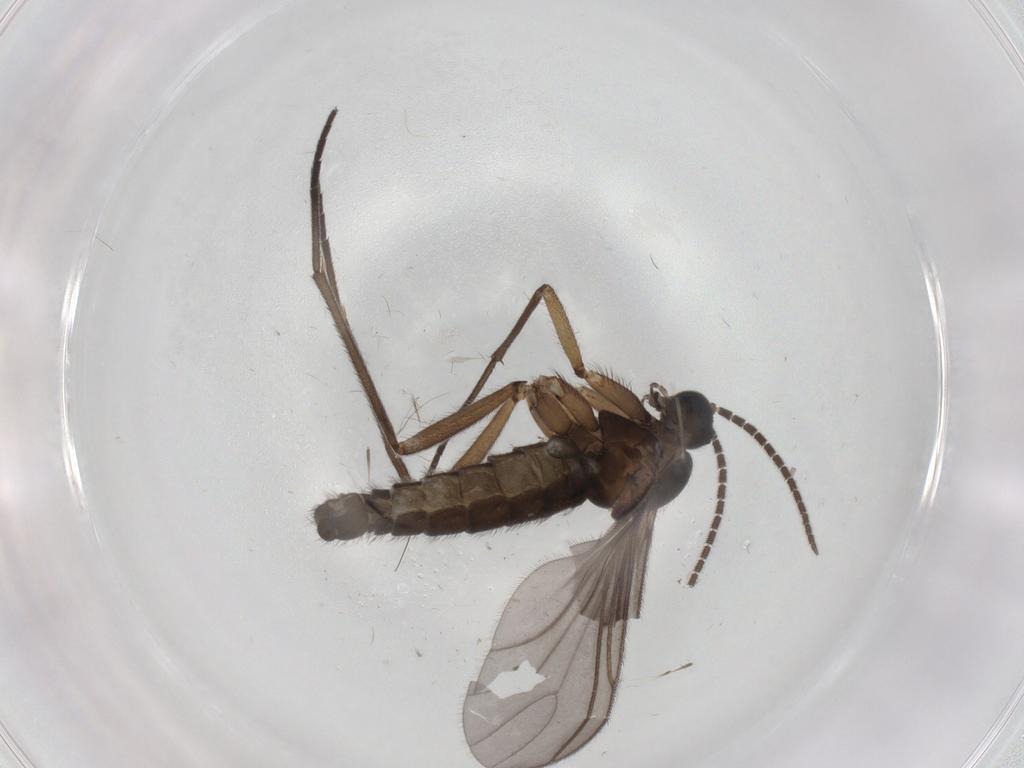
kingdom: Animalia
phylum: Arthropoda
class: Insecta
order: Diptera
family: Sciaridae
